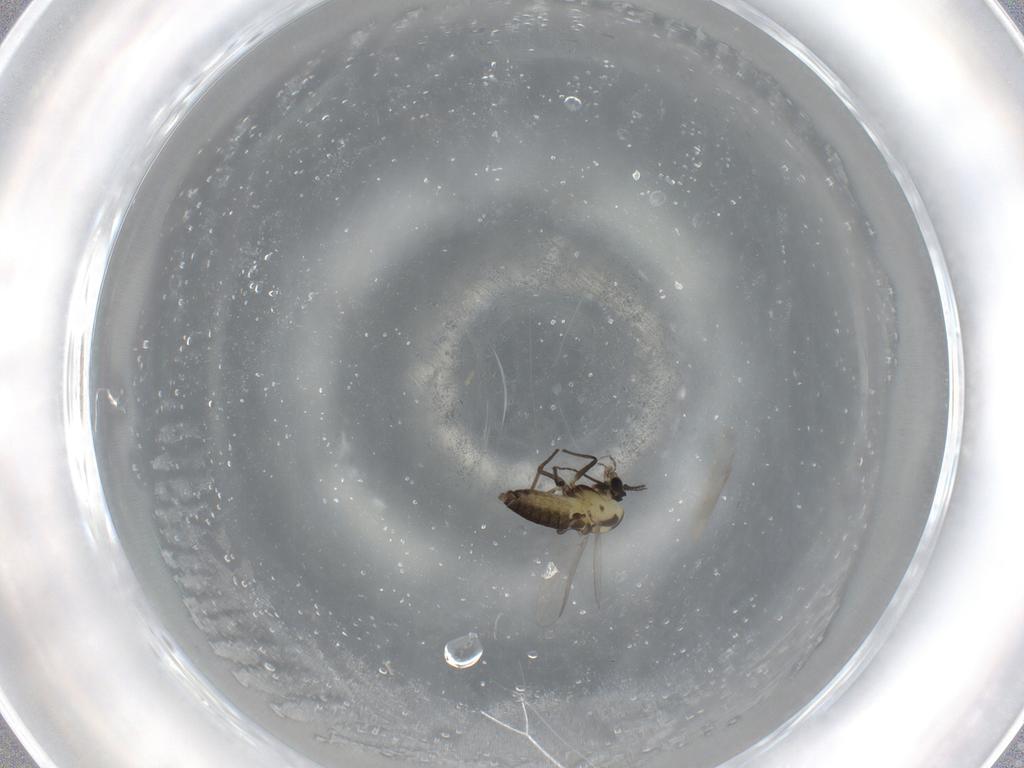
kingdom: Animalia
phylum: Arthropoda
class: Insecta
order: Diptera
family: Chironomidae
